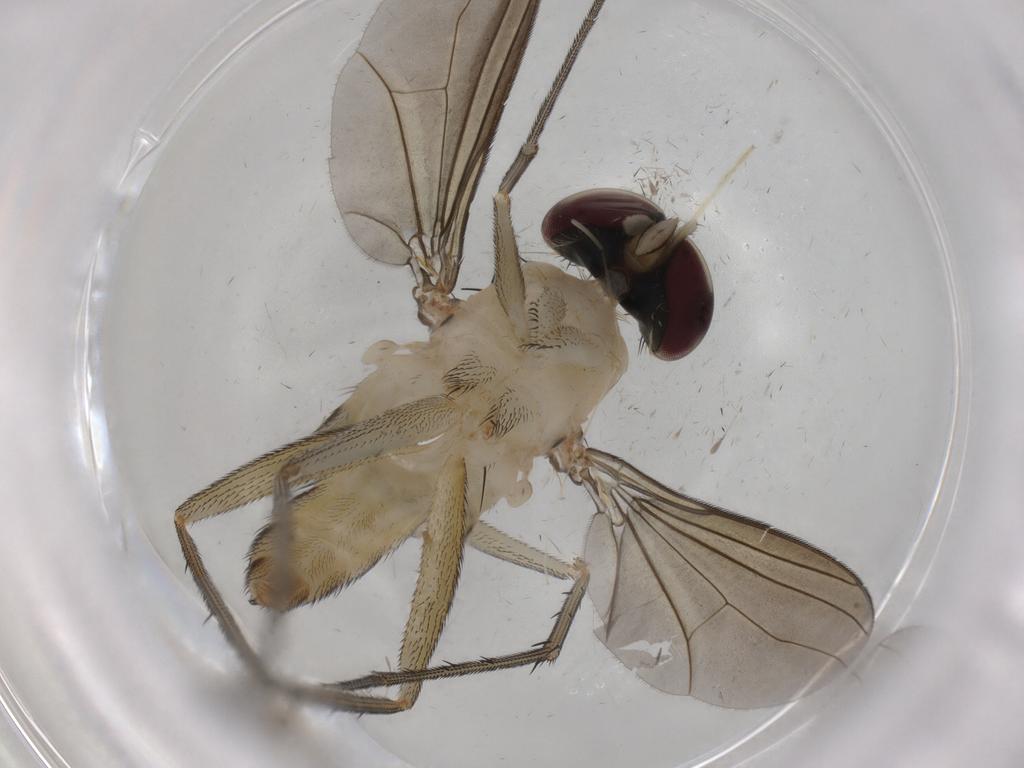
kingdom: Animalia
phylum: Arthropoda
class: Insecta
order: Diptera
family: Dolichopodidae
